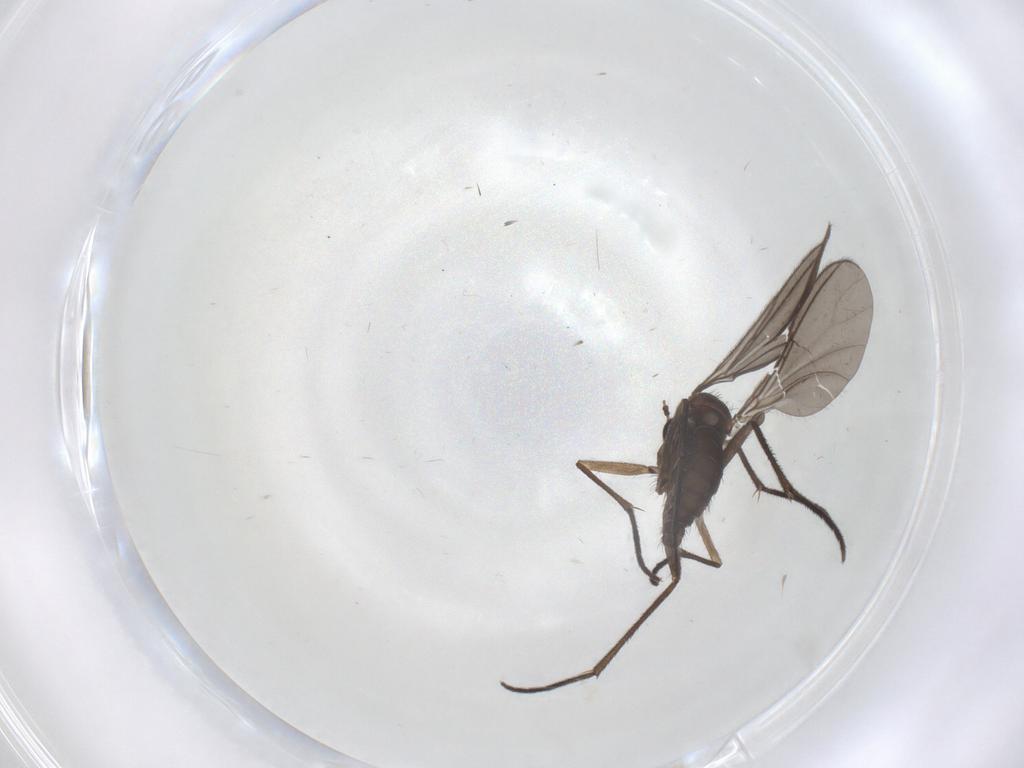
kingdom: Animalia
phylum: Arthropoda
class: Insecta
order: Diptera
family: Sciaridae
